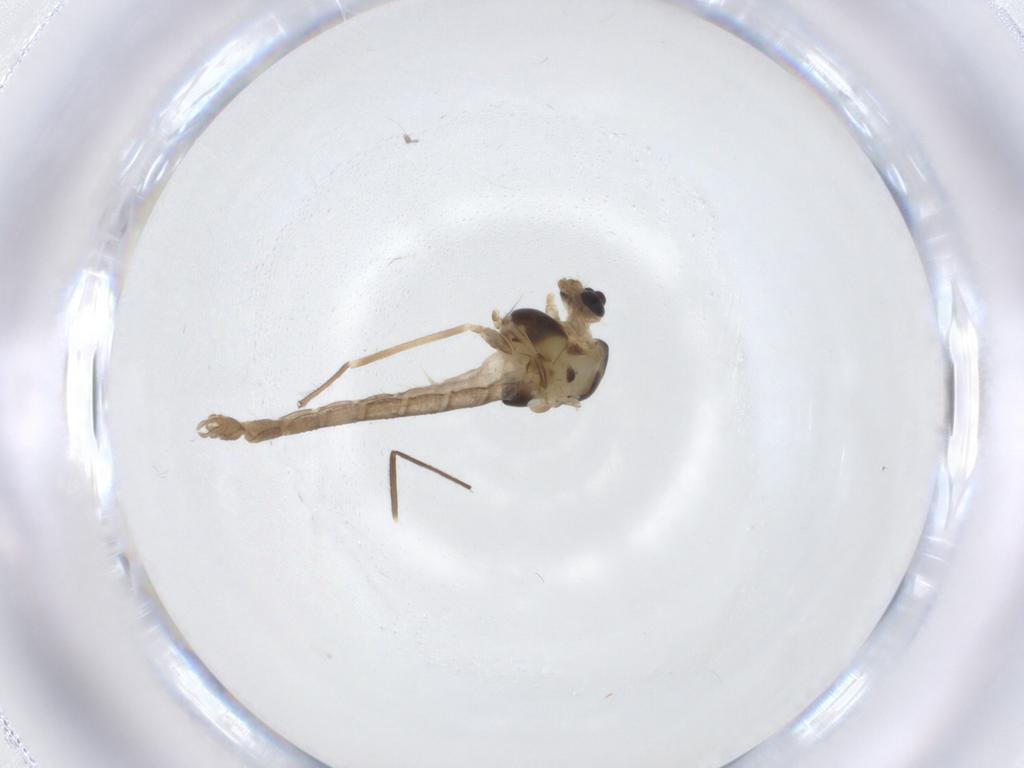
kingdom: Animalia
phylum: Arthropoda
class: Insecta
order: Diptera
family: Chironomidae
